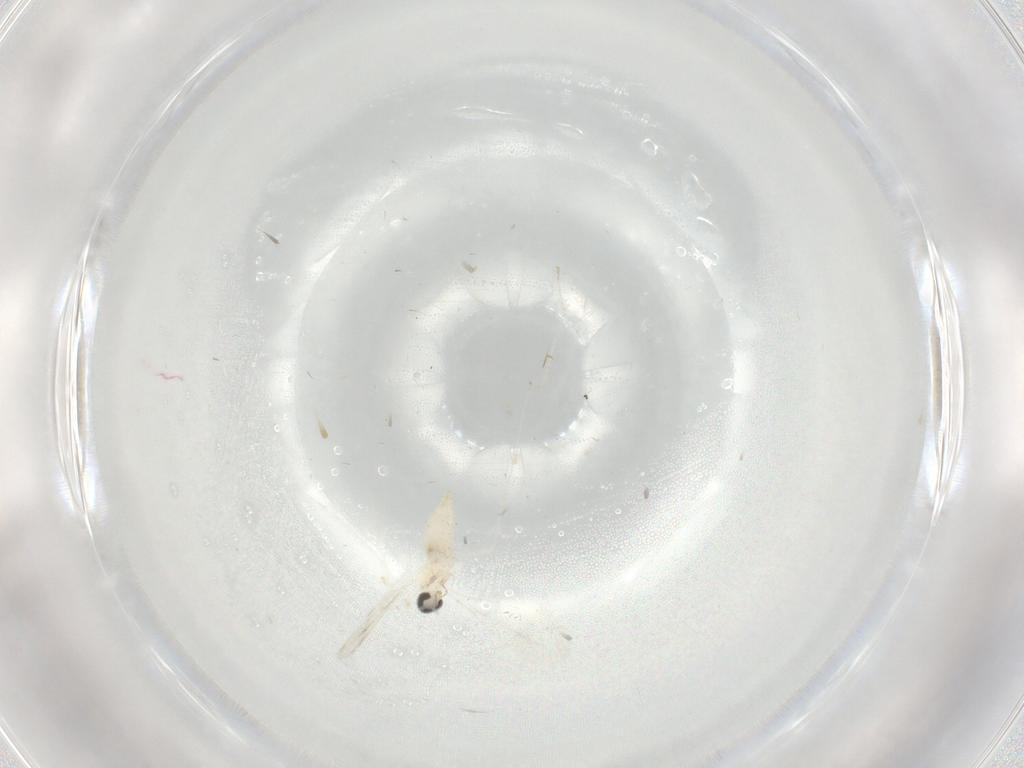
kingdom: Animalia
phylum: Arthropoda
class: Insecta
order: Diptera
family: Cecidomyiidae
